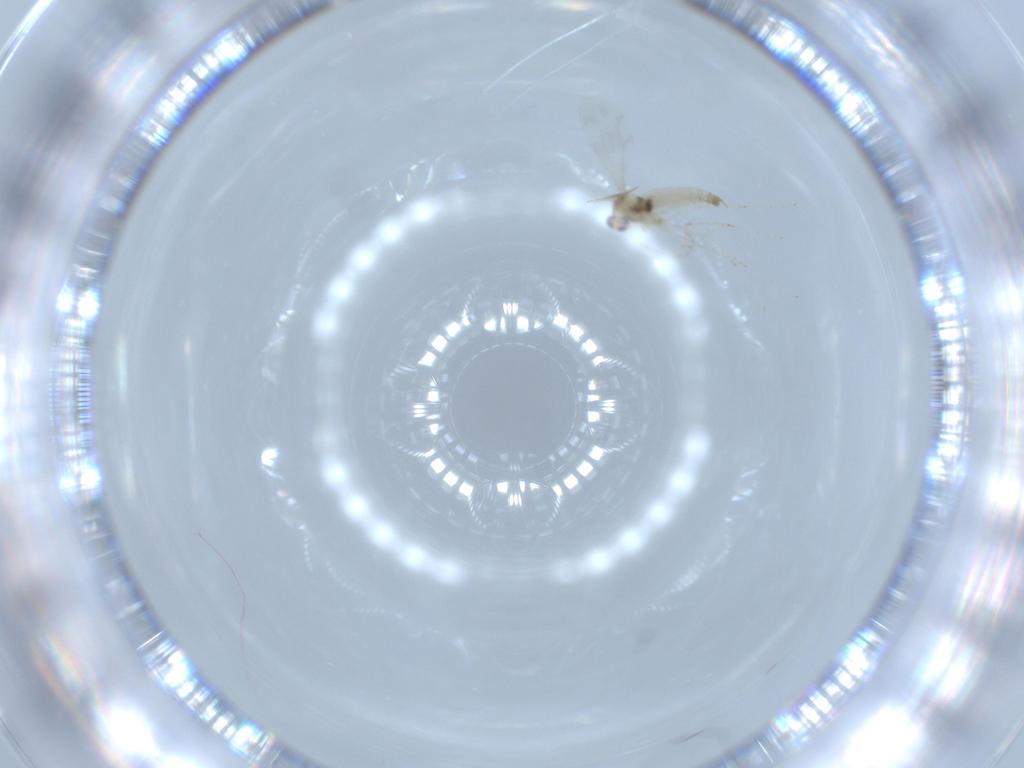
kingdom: Animalia
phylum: Arthropoda
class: Insecta
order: Diptera
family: Cecidomyiidae
